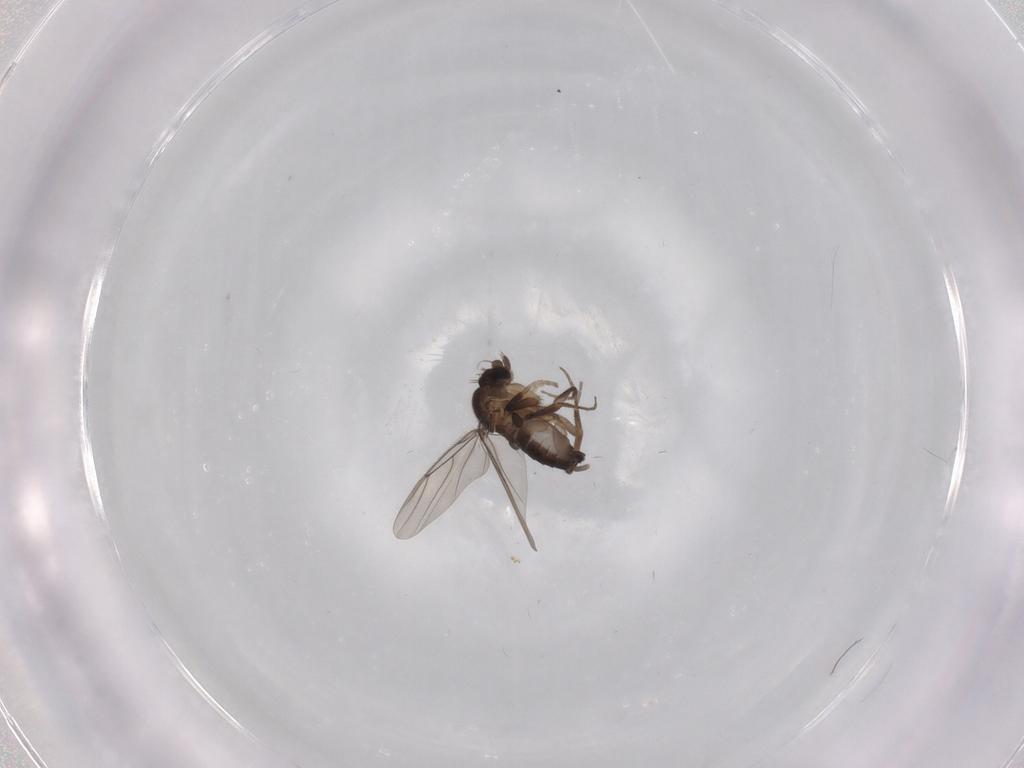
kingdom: Animalia
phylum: Arthropoda
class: Insecta
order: Diptera
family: Phoridae
